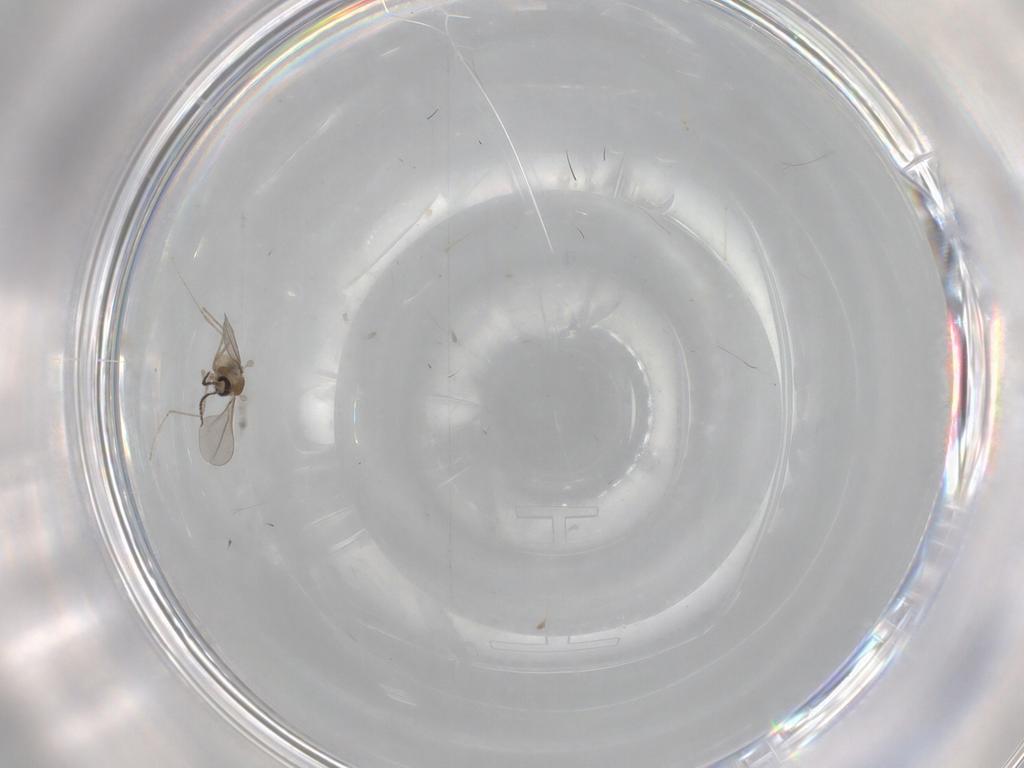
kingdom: Animalia
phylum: Arthropoda
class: Insecta
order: Diptera
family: Cecidomyiidae
